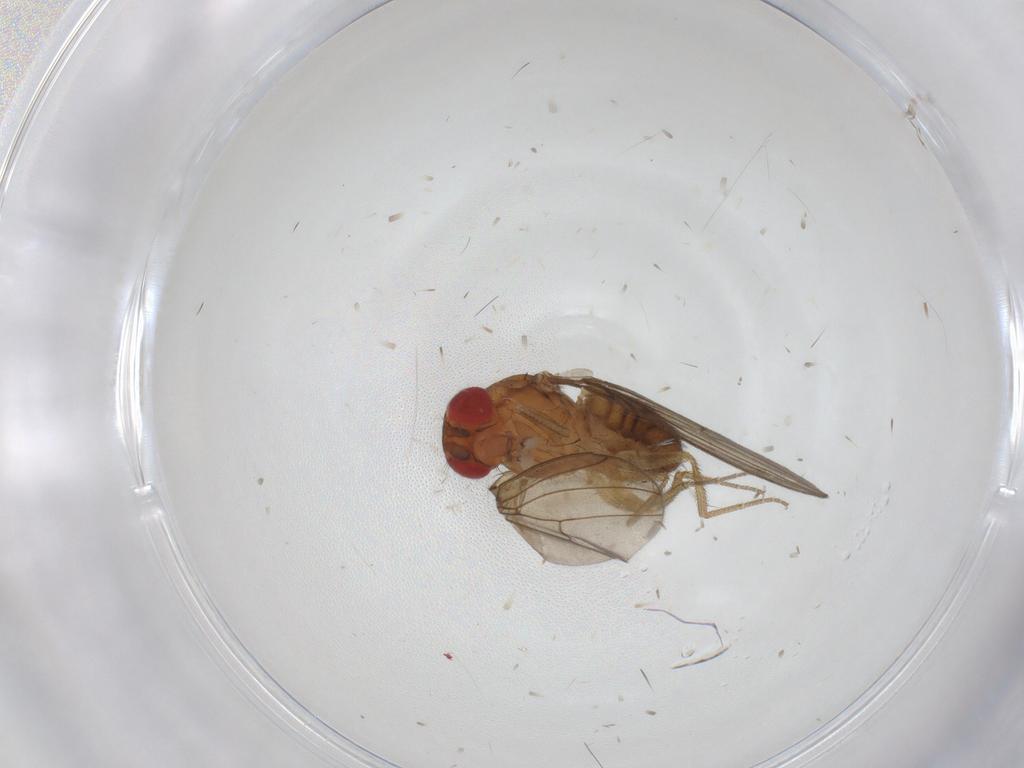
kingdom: Animalia
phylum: Arthropoda
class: Insecta
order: Diptera
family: Drosophilidae
